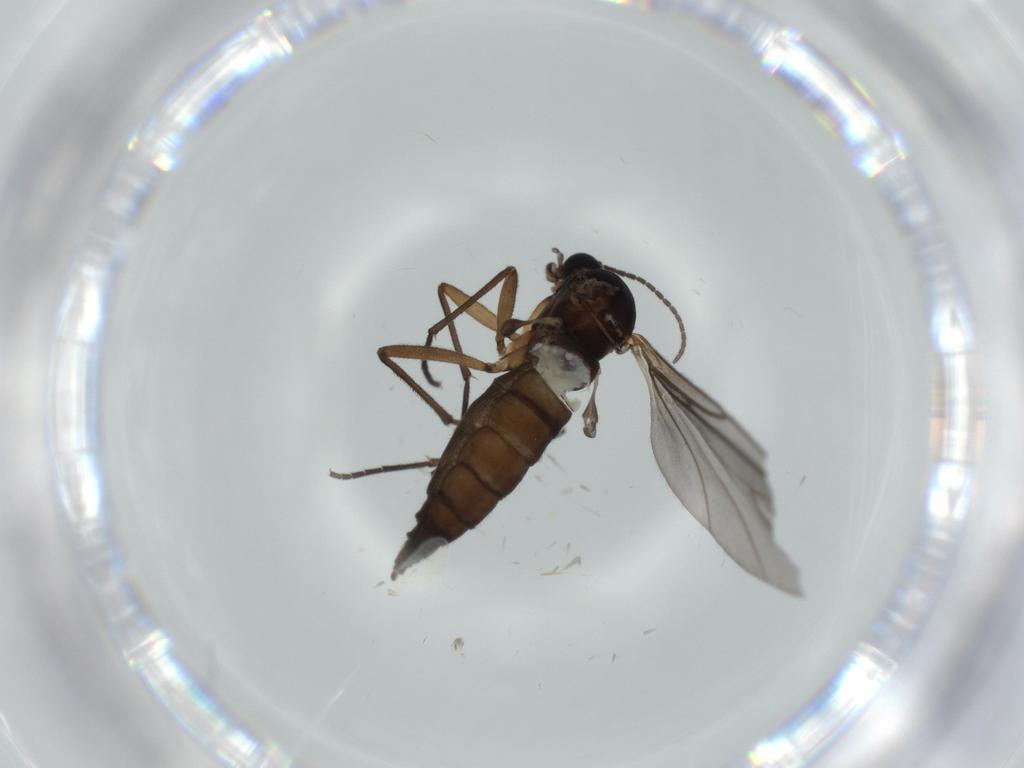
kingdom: Animalia
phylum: Arthropoda
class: Insecta
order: Diptera
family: Sciaridae
